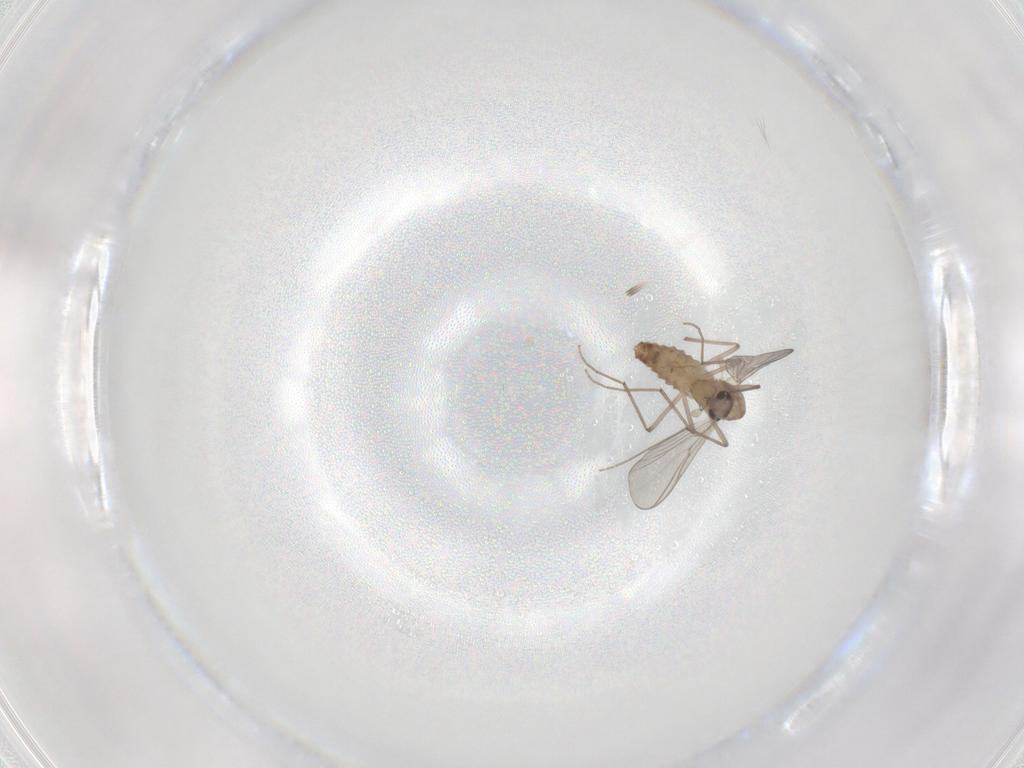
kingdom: Animalia
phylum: Arthropoda
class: Insecta
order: Diptera
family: Chironomidae
